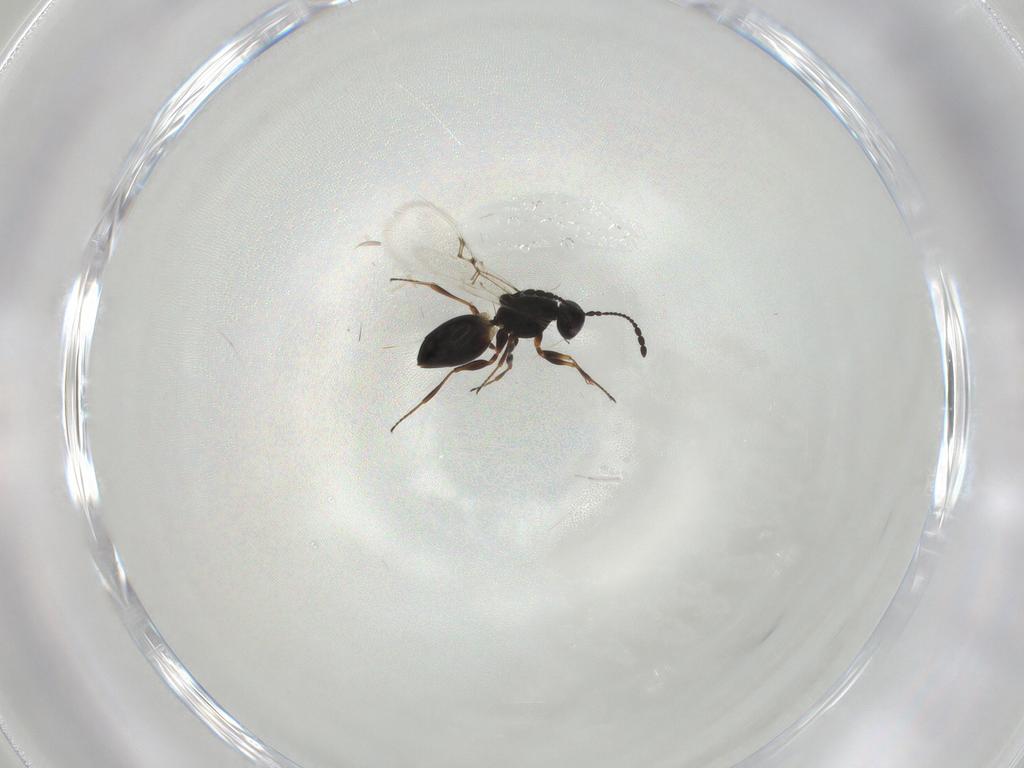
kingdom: Animalia
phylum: Arthropoda
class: Insecta
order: Hymenoptera
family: Figitidae
